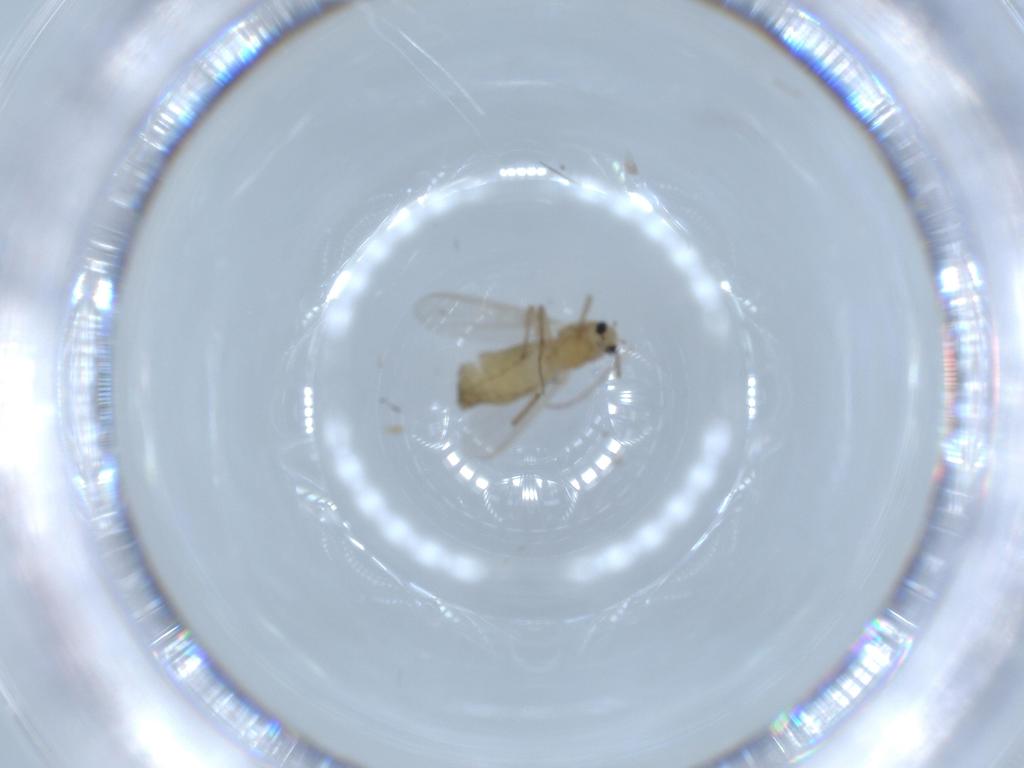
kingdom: Animalia
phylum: Arthropoda
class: Insecta
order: Diptera
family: Chironomidae
